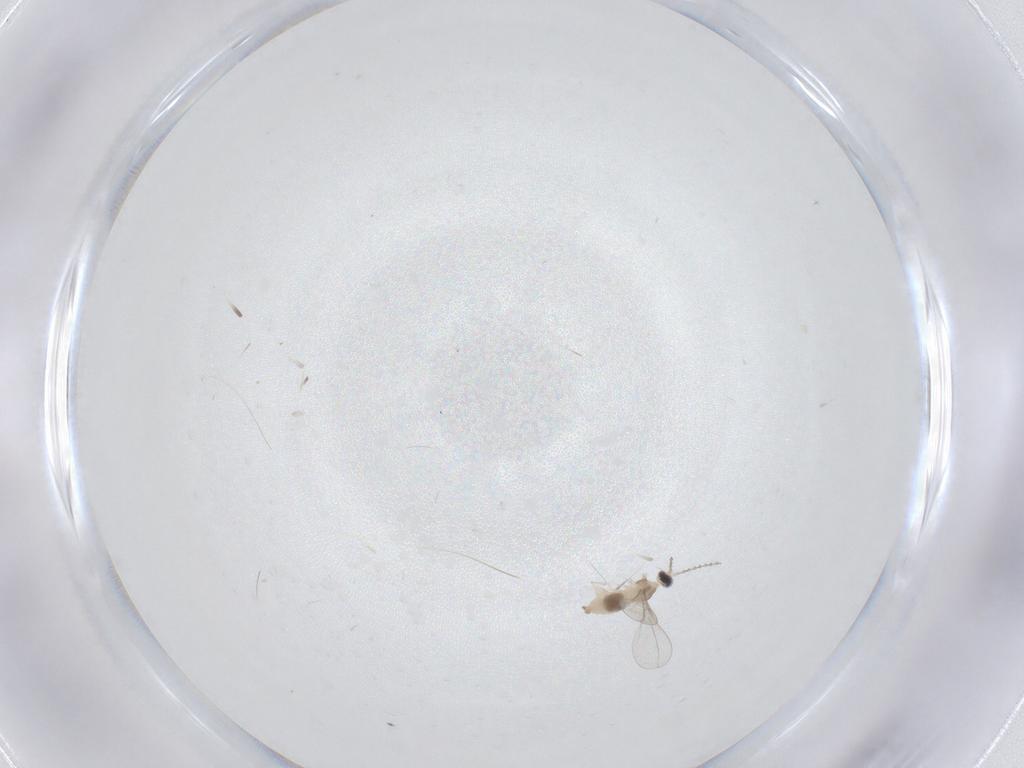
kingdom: Animalia
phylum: Arthropoda
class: Insecta
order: Diptera
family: Cecidomyiidae
